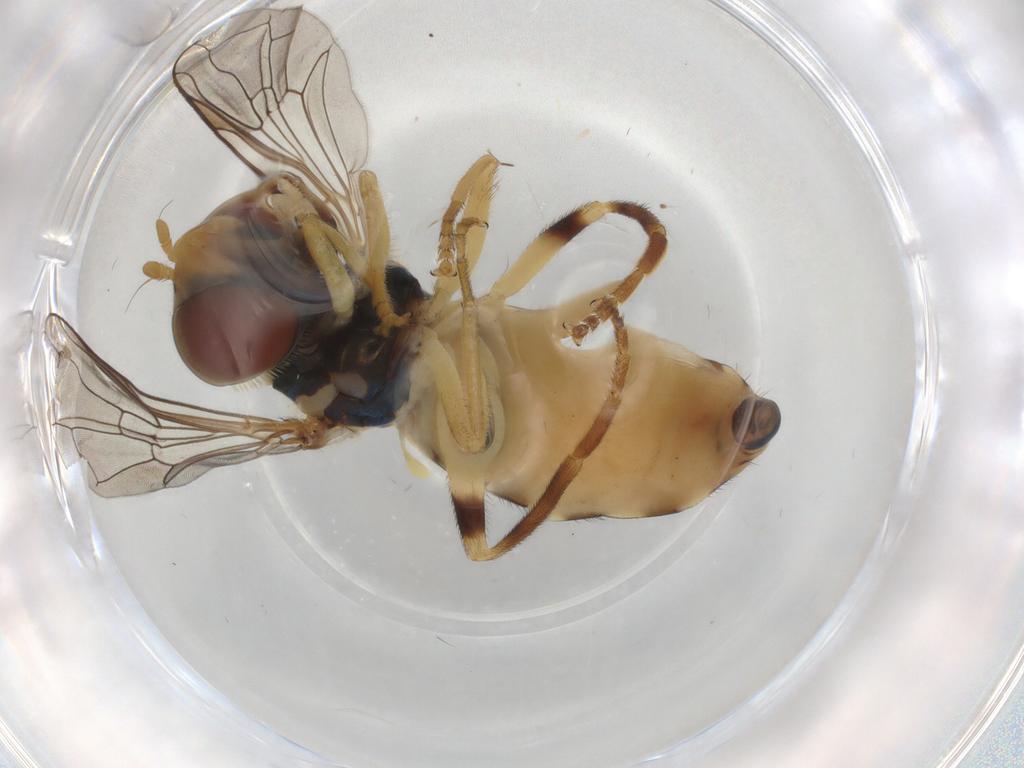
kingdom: Animalia
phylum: Arthropoda
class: Insecta
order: Diptera
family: Syrphidae
